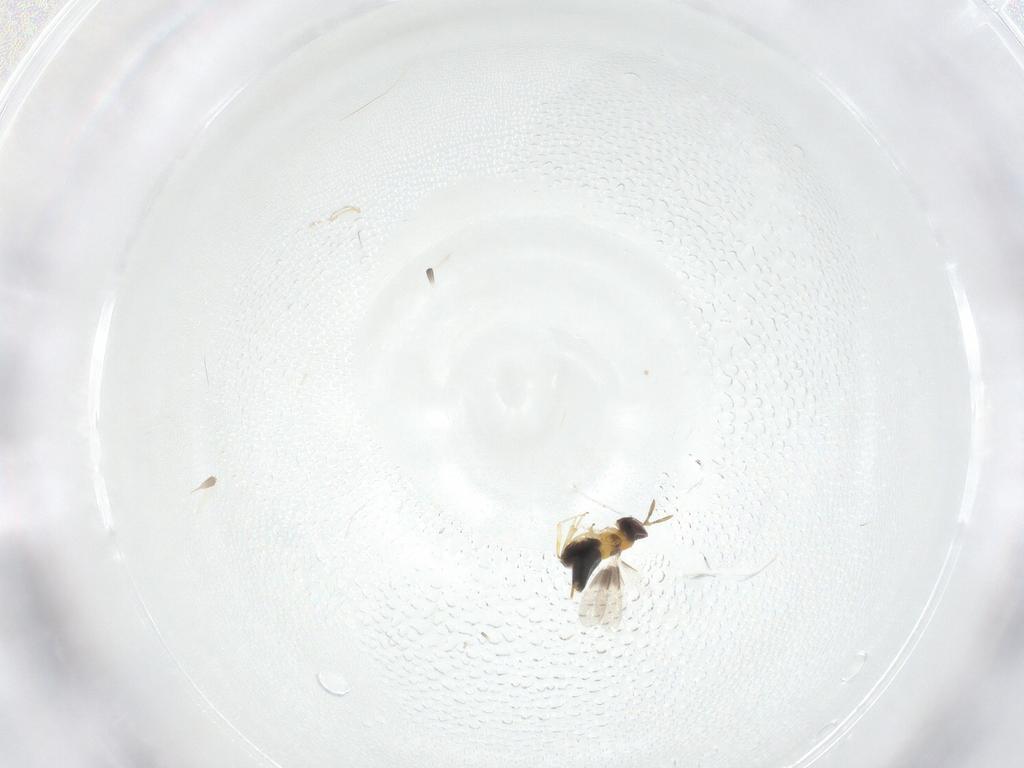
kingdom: Animalia
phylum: Arthropoda
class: Insecta
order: Hymenoptera
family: Aphelinidae
